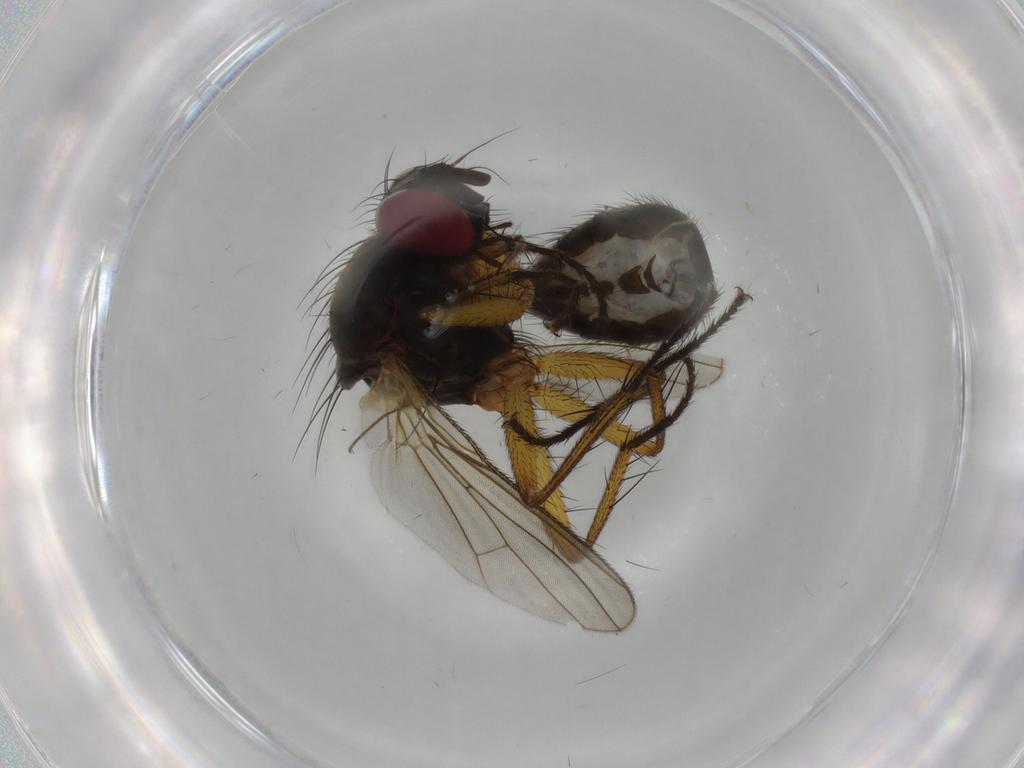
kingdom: Animalia
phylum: Arthropoda
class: Insecta
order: Diptera
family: Muscidae
